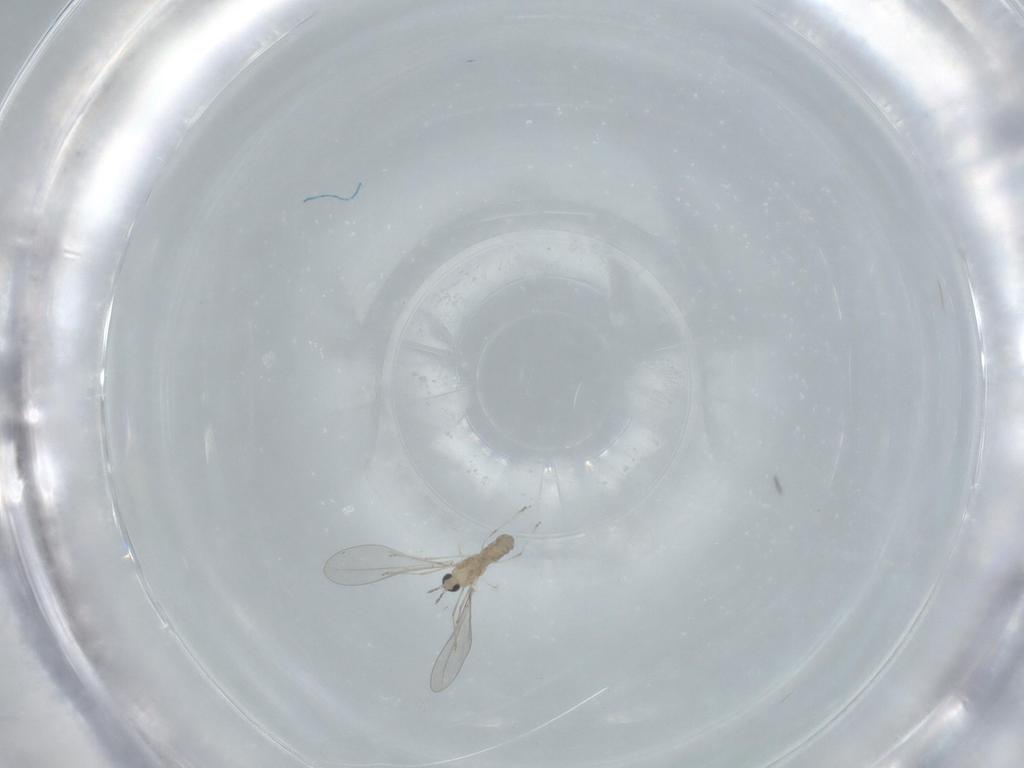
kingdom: Animalia
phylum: Arthropoda
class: Insecta
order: Diptera
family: Cecidomyiidae
